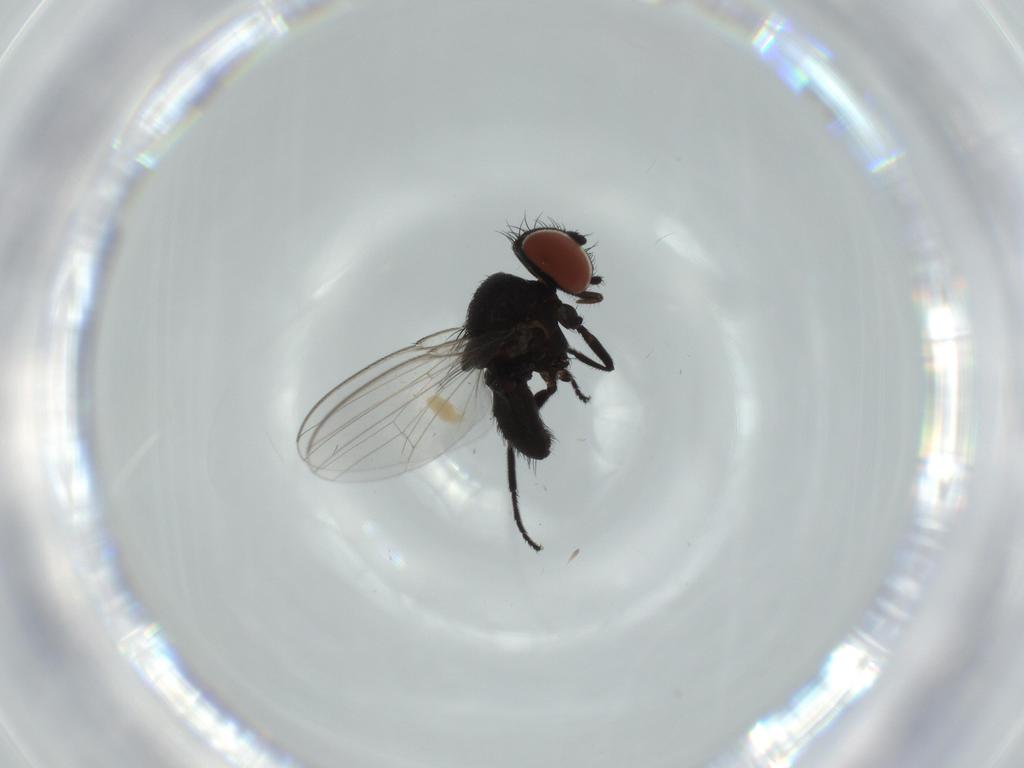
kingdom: Animalia
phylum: Arthropoda
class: Insecta
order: Diptera
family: Milichiidae
